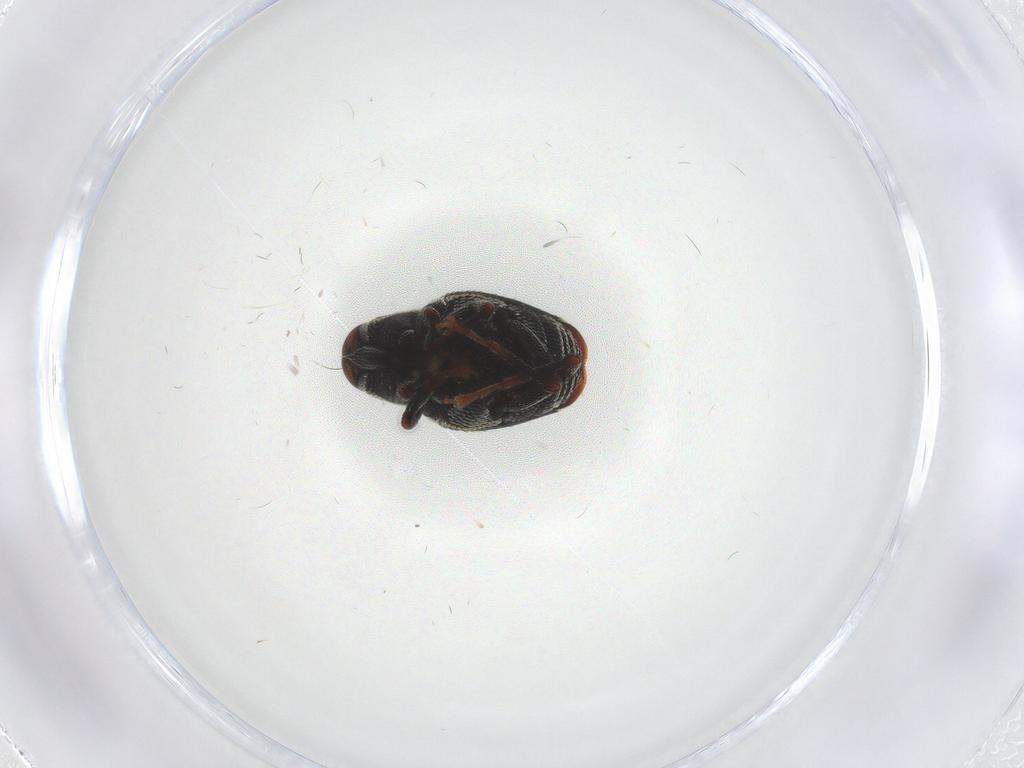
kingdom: Animalia
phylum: Arthropoda
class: Insecta
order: Coleoptera
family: Curculionidae
